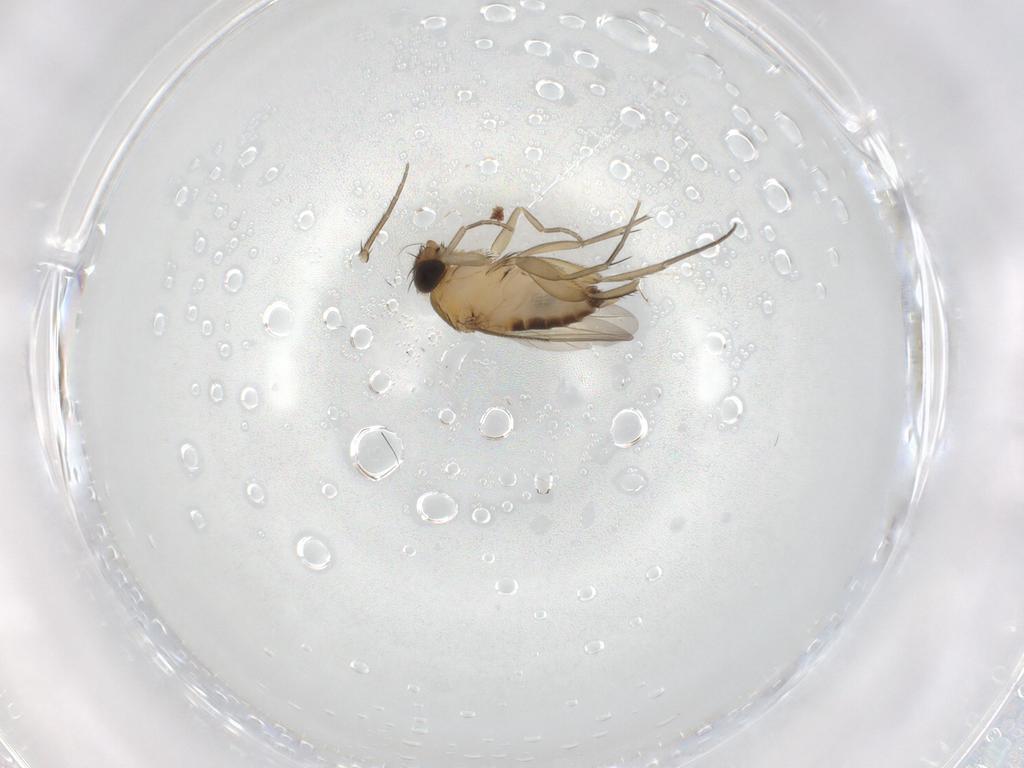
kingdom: Animalia
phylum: Arthropoda
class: Insecta
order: Diptera
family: Phoridae
